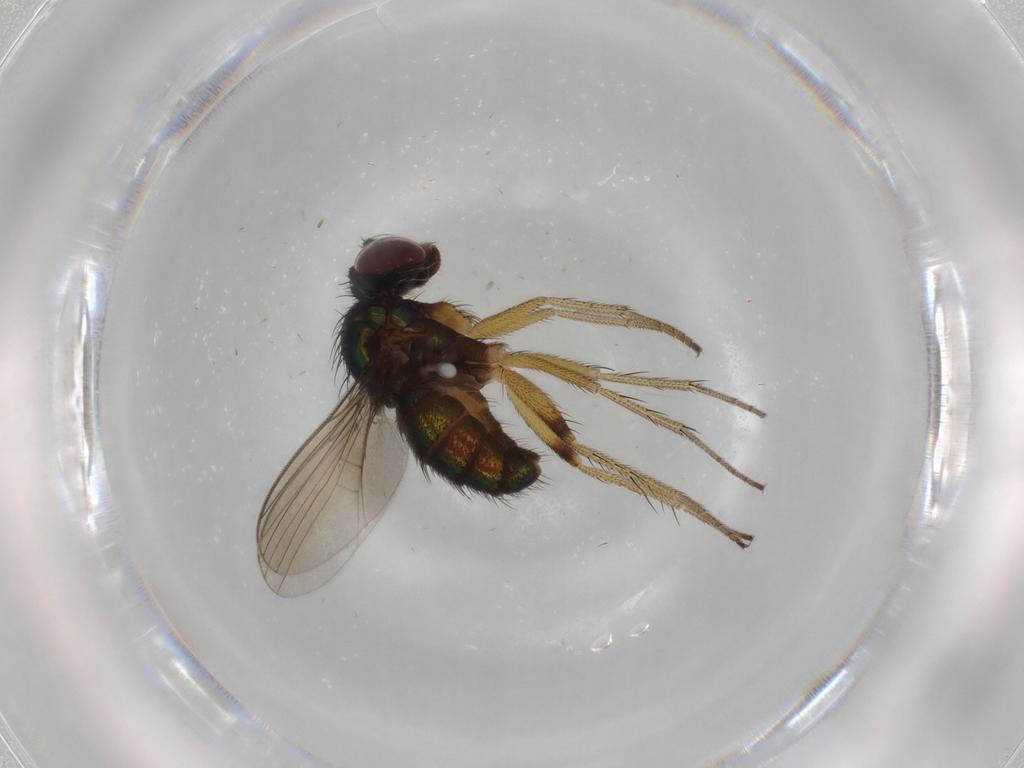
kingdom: Animalia
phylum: Arthropoda
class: Insecta
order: Diptera
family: Dolichopodidae
